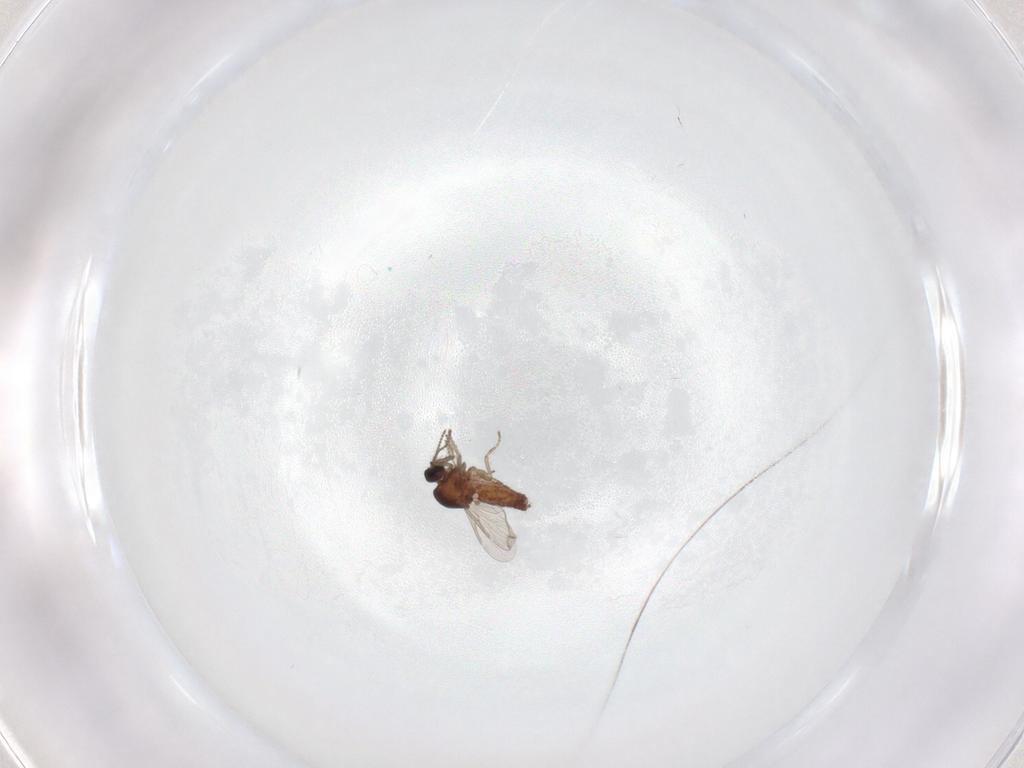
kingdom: Animalia
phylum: Arthropoda
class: Insecta
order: Diptera
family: Ceratopogonidae
